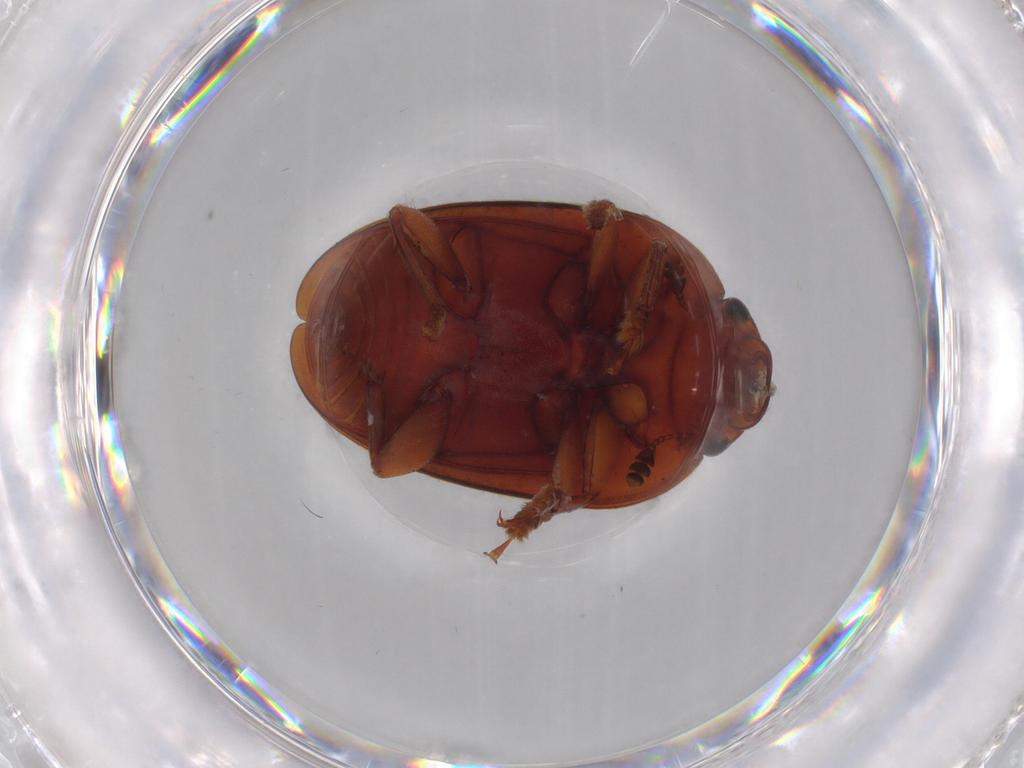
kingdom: Animalia
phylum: Arthropoda
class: Insecta
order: Coleoptera
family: Nitidulidae
